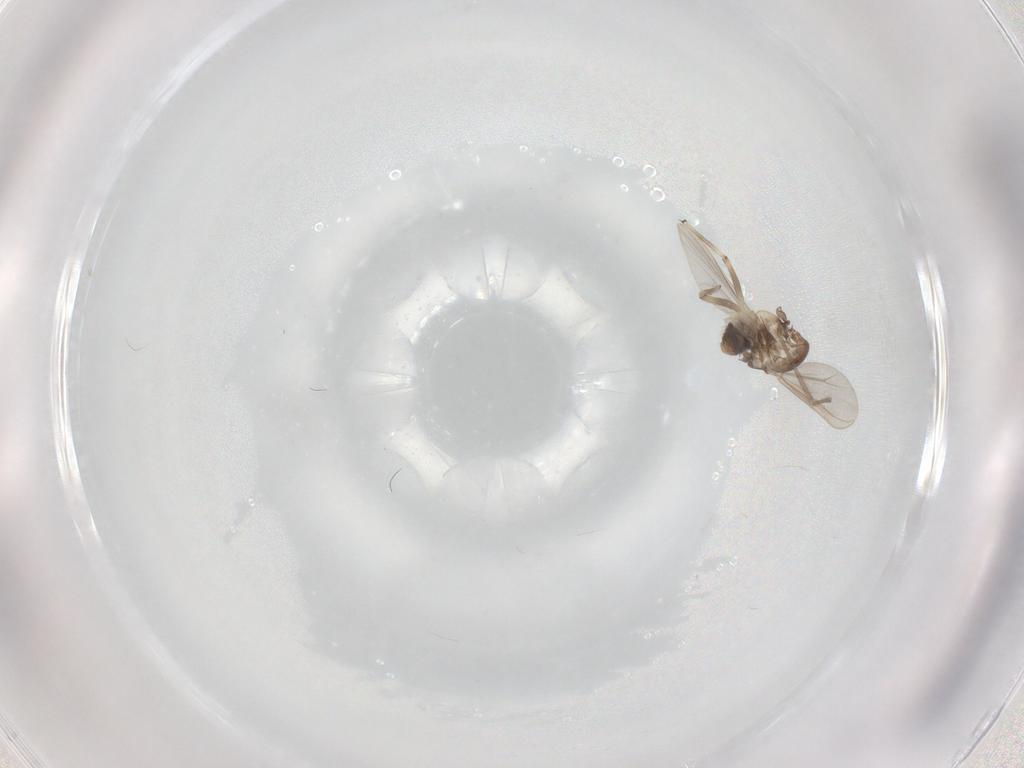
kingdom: Animalia
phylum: Arthropoda
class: Insecta
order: Diptera
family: Chironomidae
